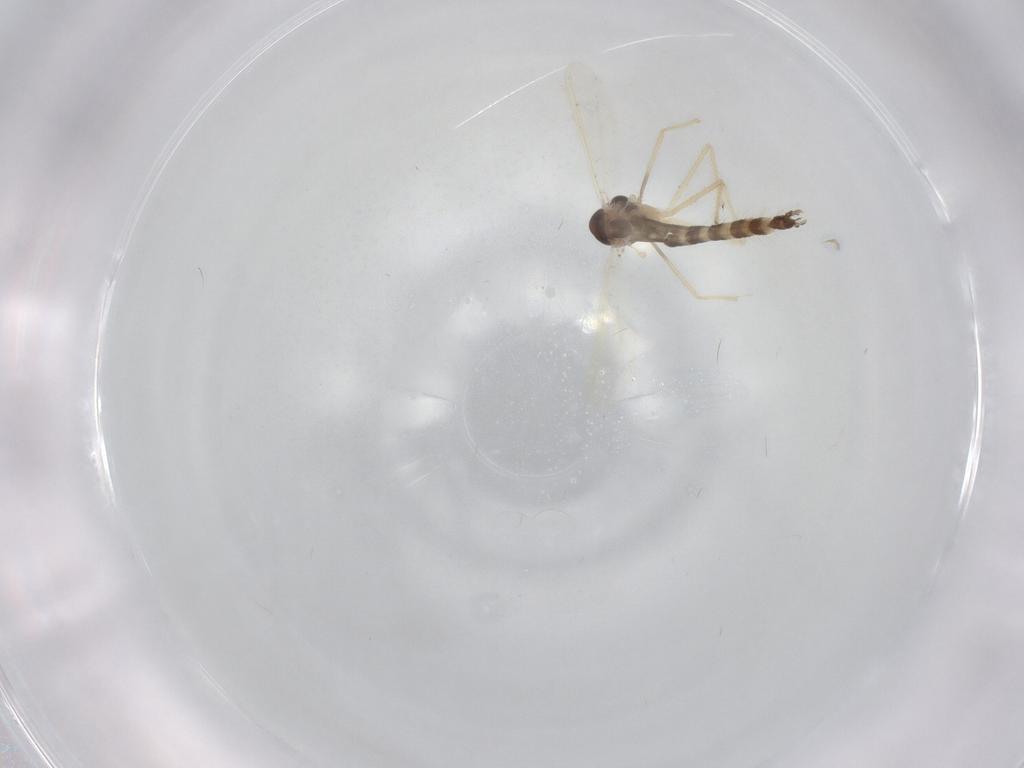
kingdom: Animalia
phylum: Arthropoda
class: Insecta
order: Diptera
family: Chironomidae
